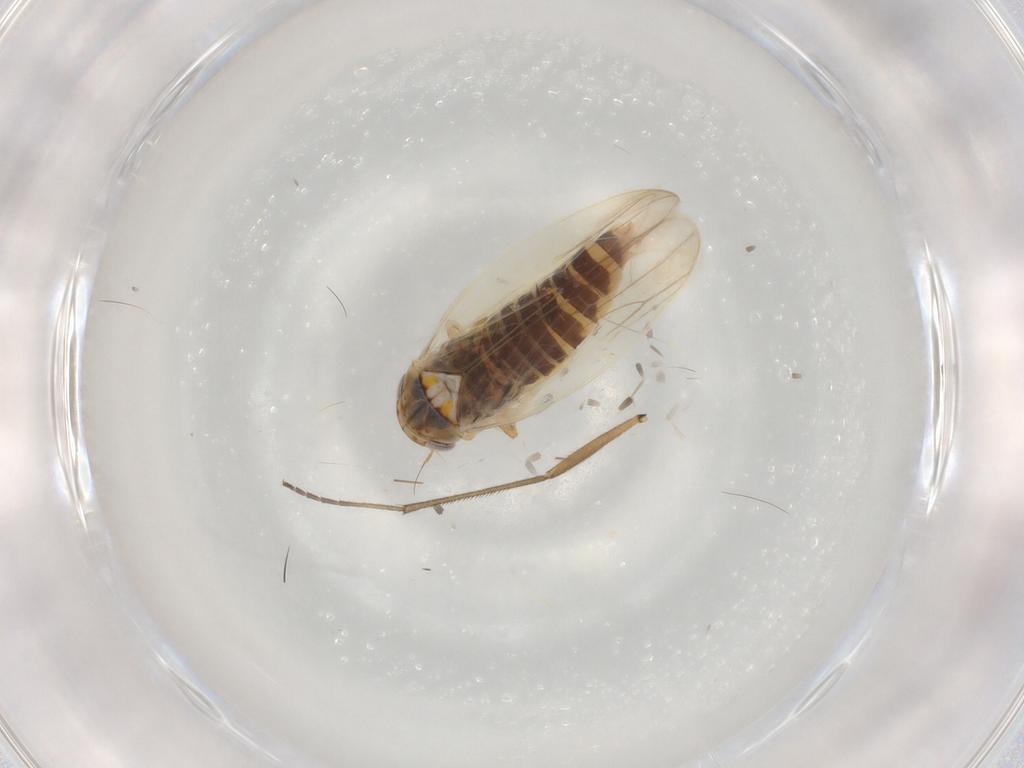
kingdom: Animalia
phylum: Arthropoda
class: Insecta
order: Hemiptera
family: Cicadellidae
